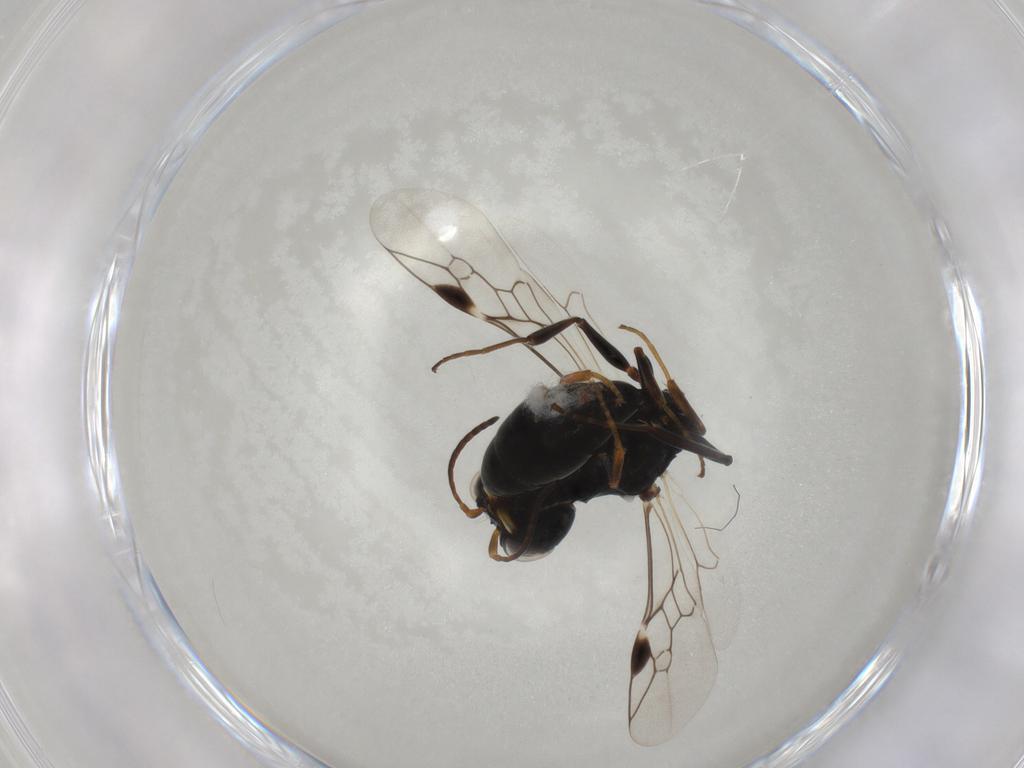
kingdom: Animalia
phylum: Arthropoda
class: Insecta
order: Hymenoptera
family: Pemphredonidae
